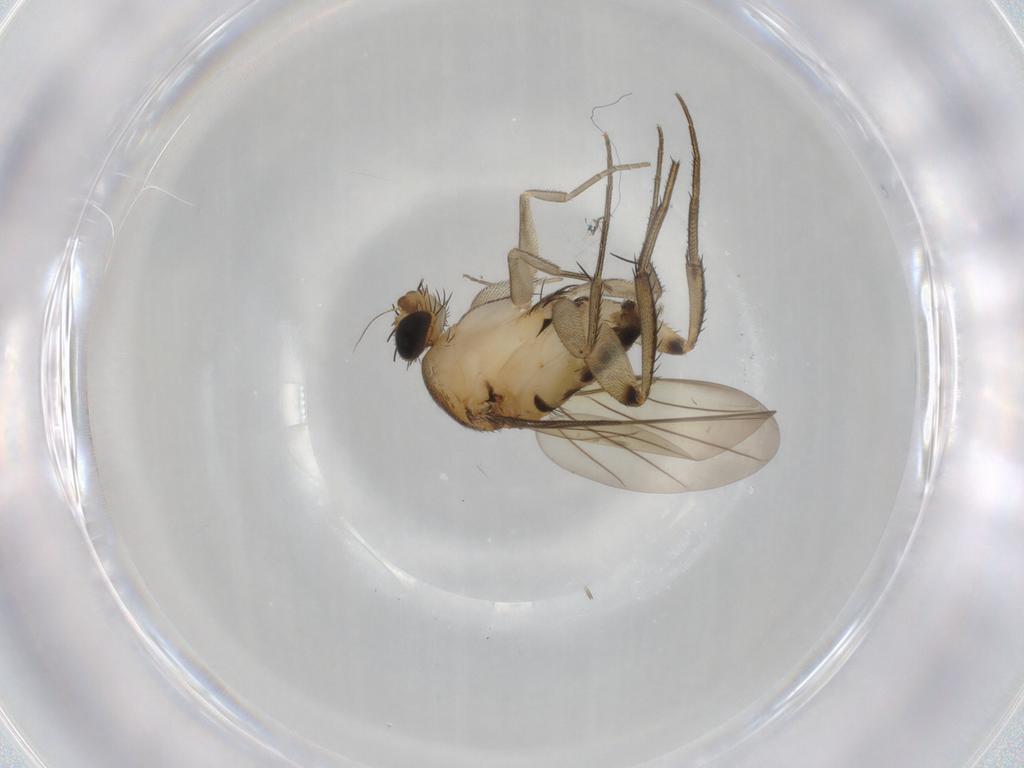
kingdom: Animalia
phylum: Arthropoda
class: Insecta
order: Diptera
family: Phoridae
